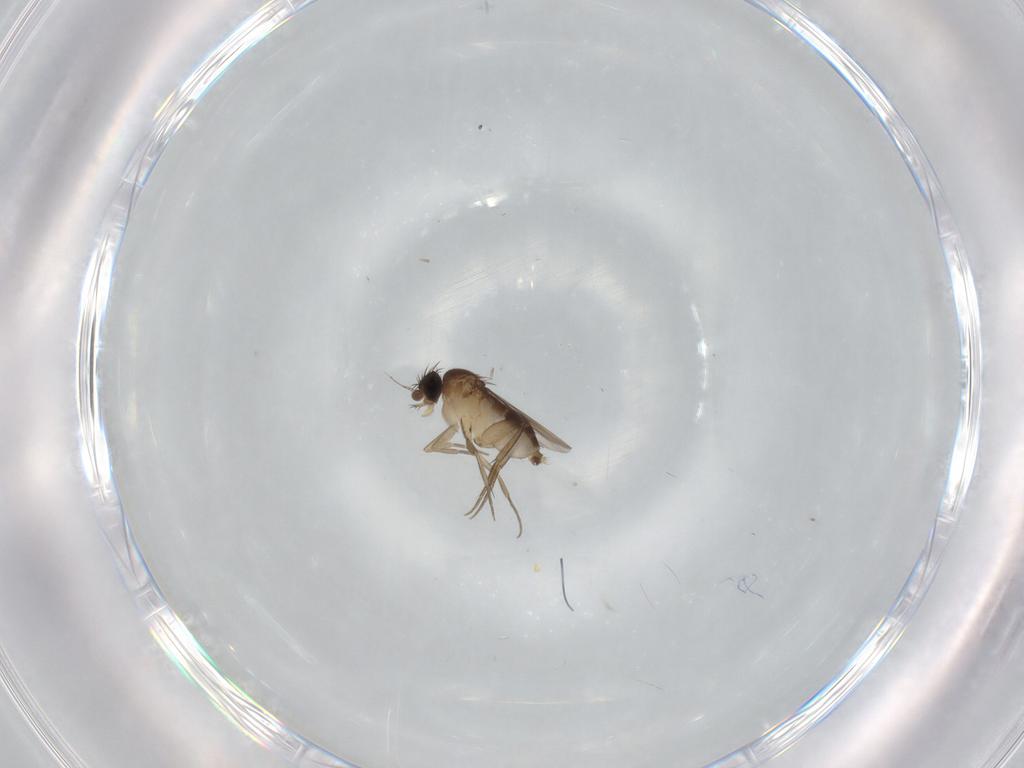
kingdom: Animalia
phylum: Arthropoda
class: Insecta
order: Diptera
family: Phoridae
